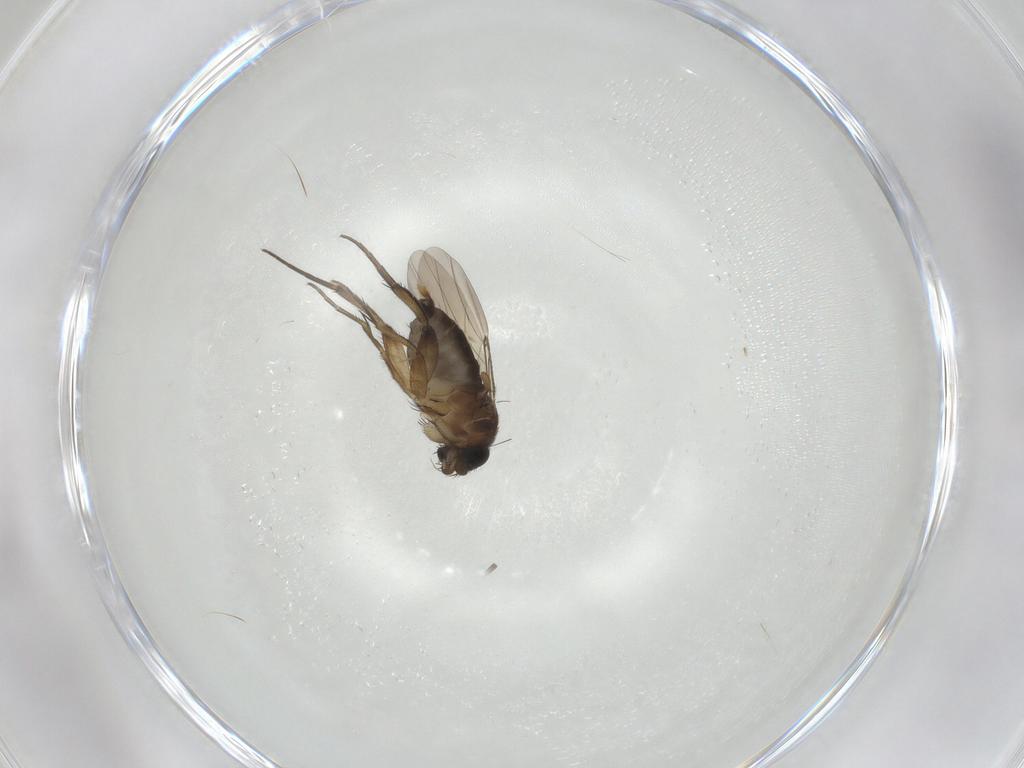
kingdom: Animalia
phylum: Arthropoda
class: Insecta
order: Diptera
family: Phoridae
